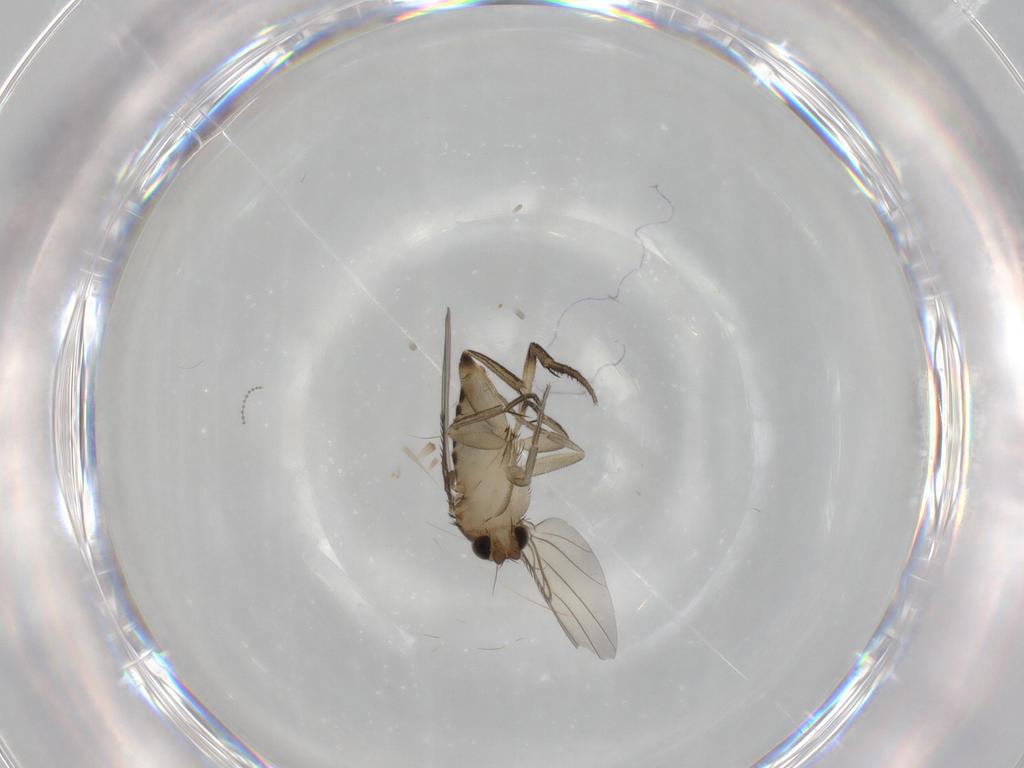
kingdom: Animalia
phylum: Arthropoda
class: Insecta
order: Diptera
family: Phoridae
